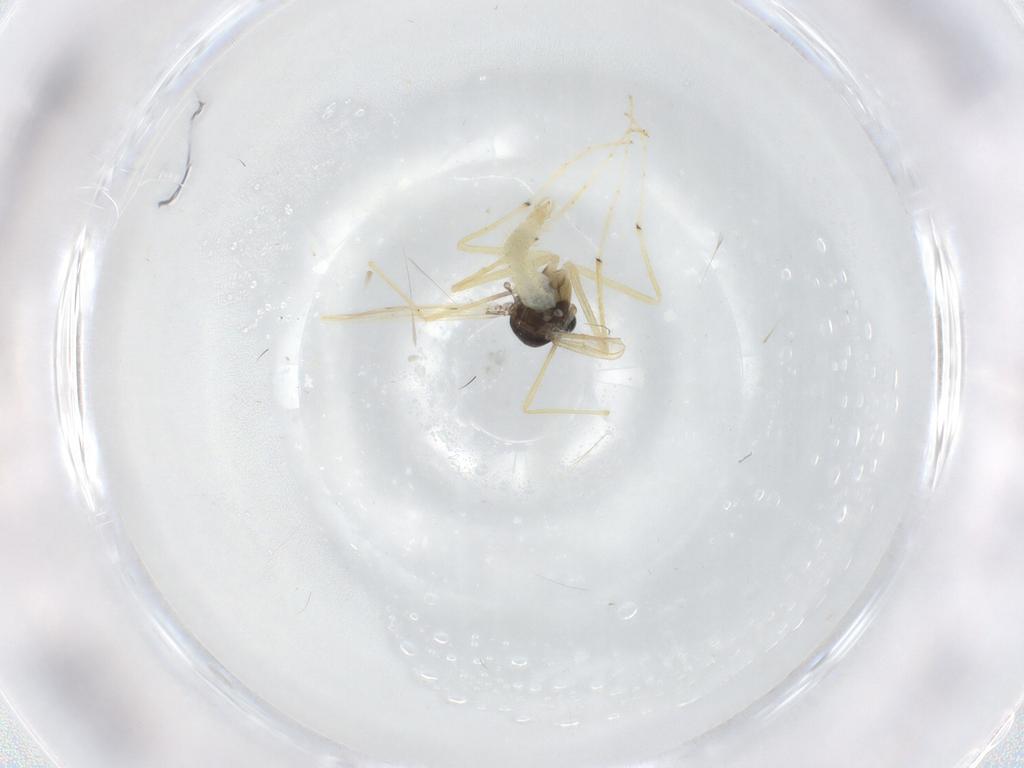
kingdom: Animalia
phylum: Arthropoda
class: Insecta
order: Diptera
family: Chironomidae
